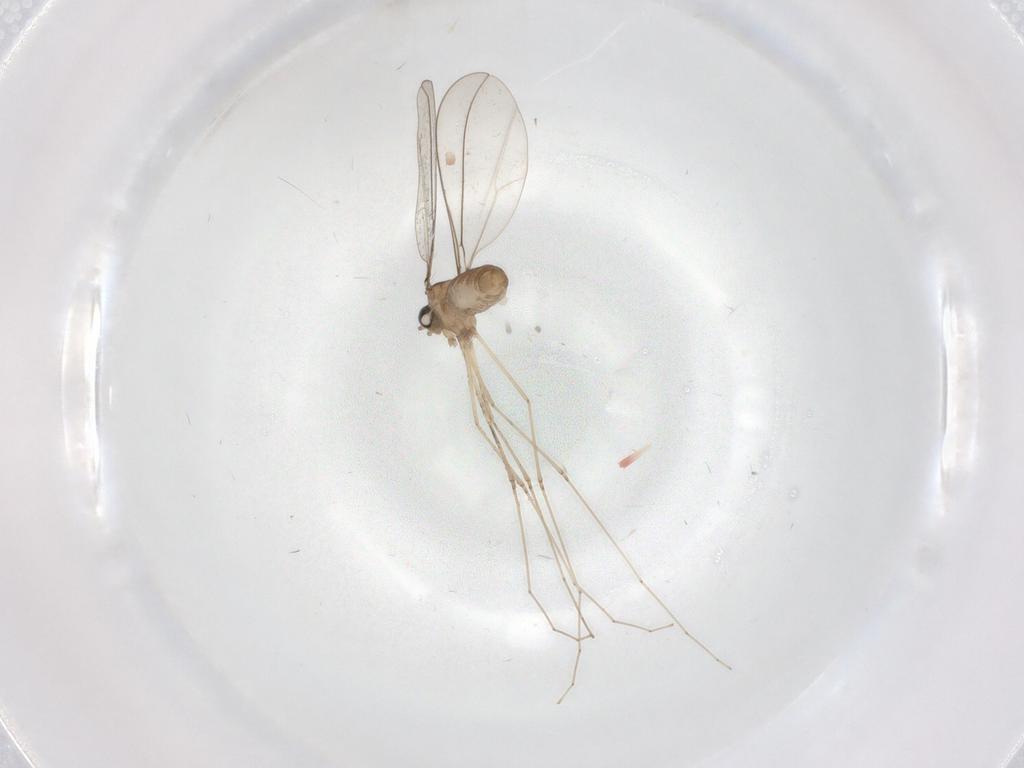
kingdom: Animalia
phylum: Arthropoda
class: Insecta
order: Diptera
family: Cecidomyiidae
